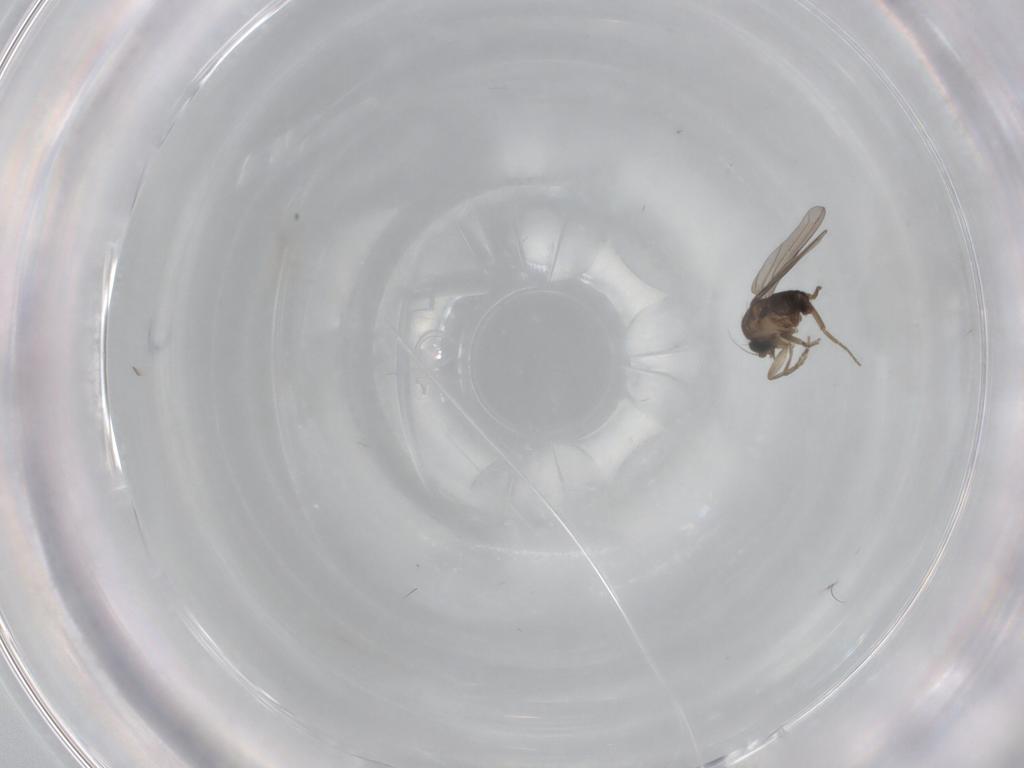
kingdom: Animalia
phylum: Arthropoda
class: Insecta
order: Diptera
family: Phoridae
